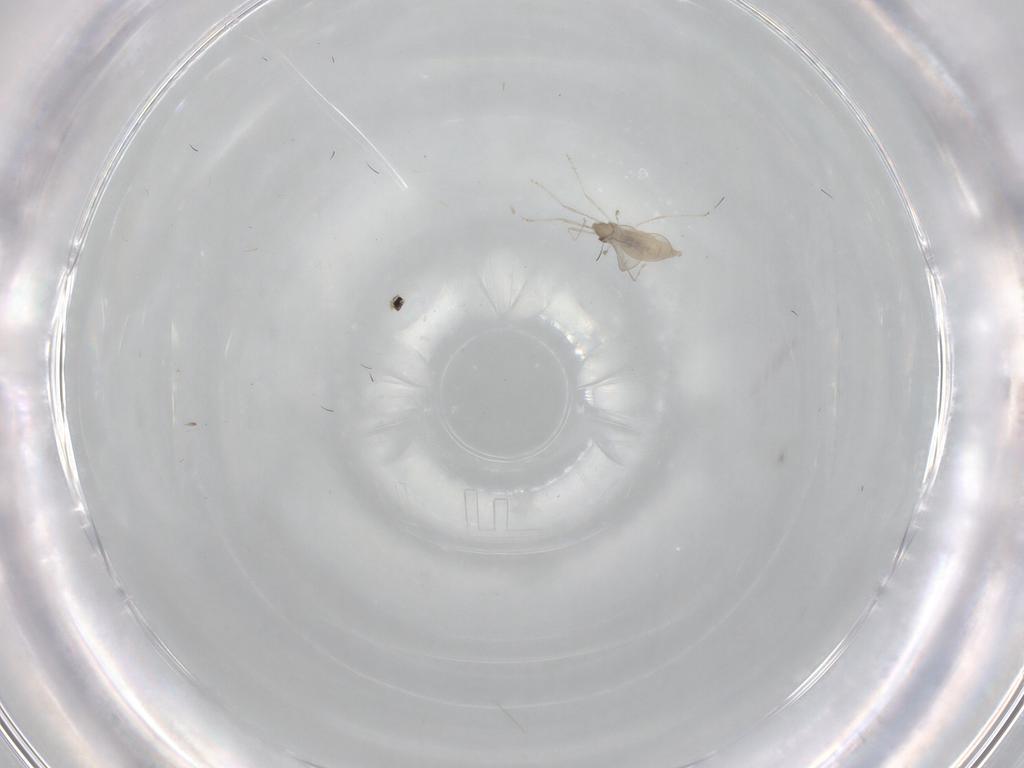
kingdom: Animalia
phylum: Arthropoda
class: Insecta
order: Diptera
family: Cecidomyiidae
